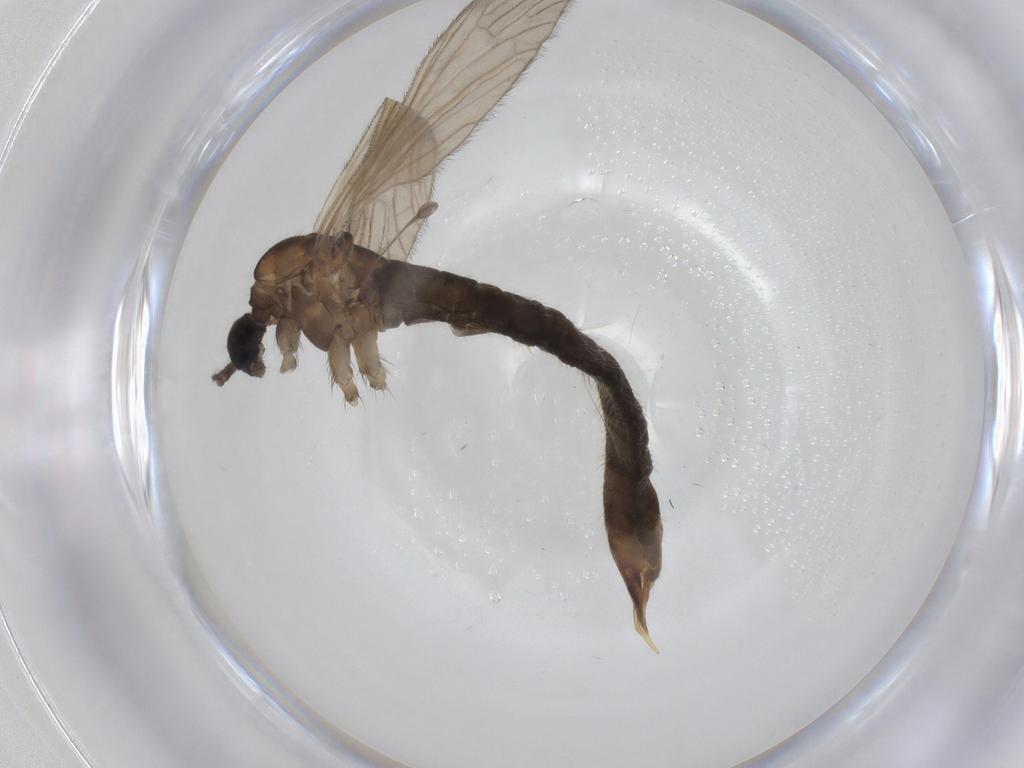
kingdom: Animalia
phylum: Arthropoda
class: Insecta
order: Diptera
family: Limoniidae
